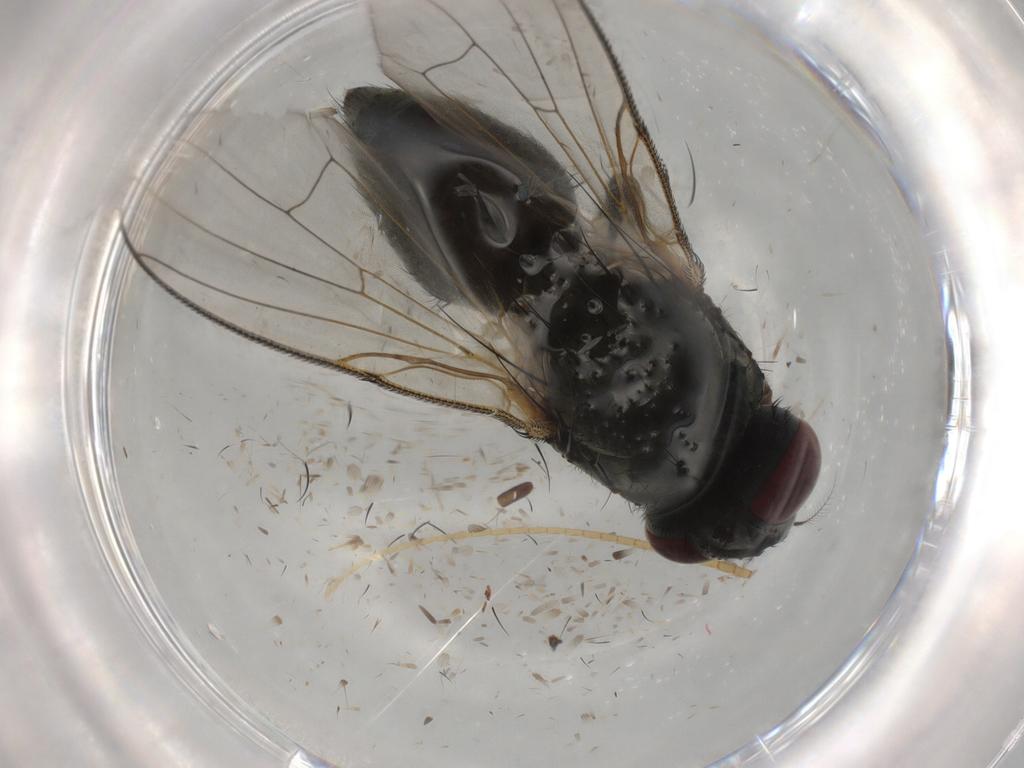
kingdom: Animalia
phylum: Arthropoda
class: Insecta
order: Diptera
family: Muscidae
